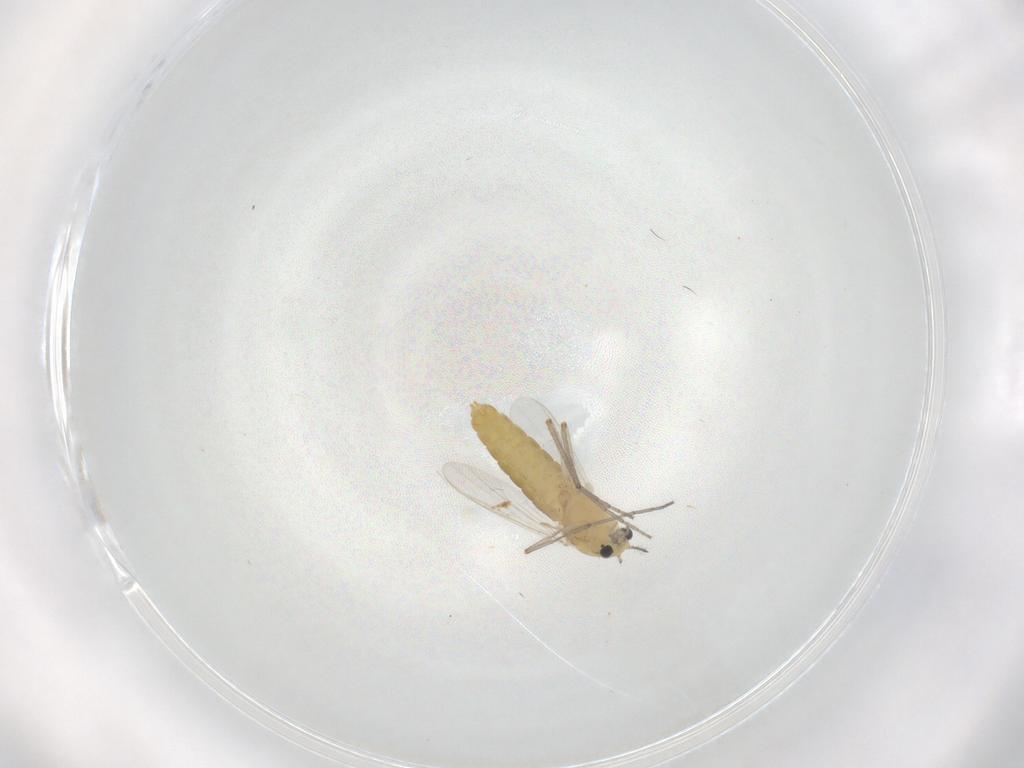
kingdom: Animalia
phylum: Arthropoda
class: Insecta
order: Diptera
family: Chironomidae
